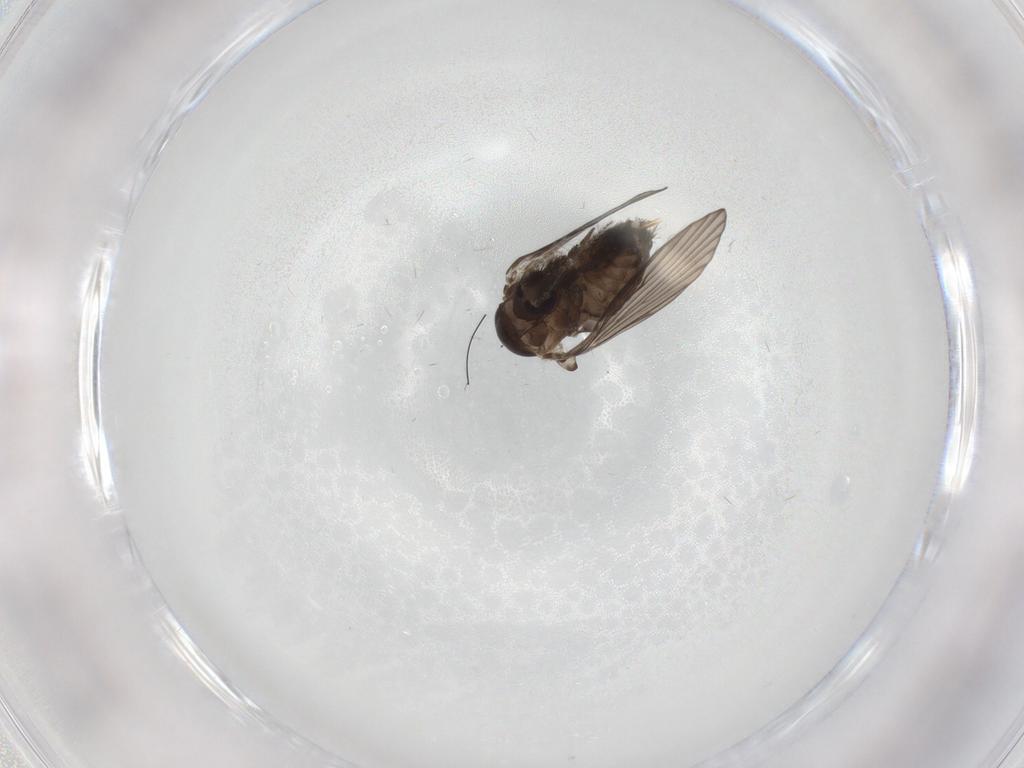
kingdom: Animalia
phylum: Arthropoda
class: Insecta
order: Diptera
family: Psychodidae
